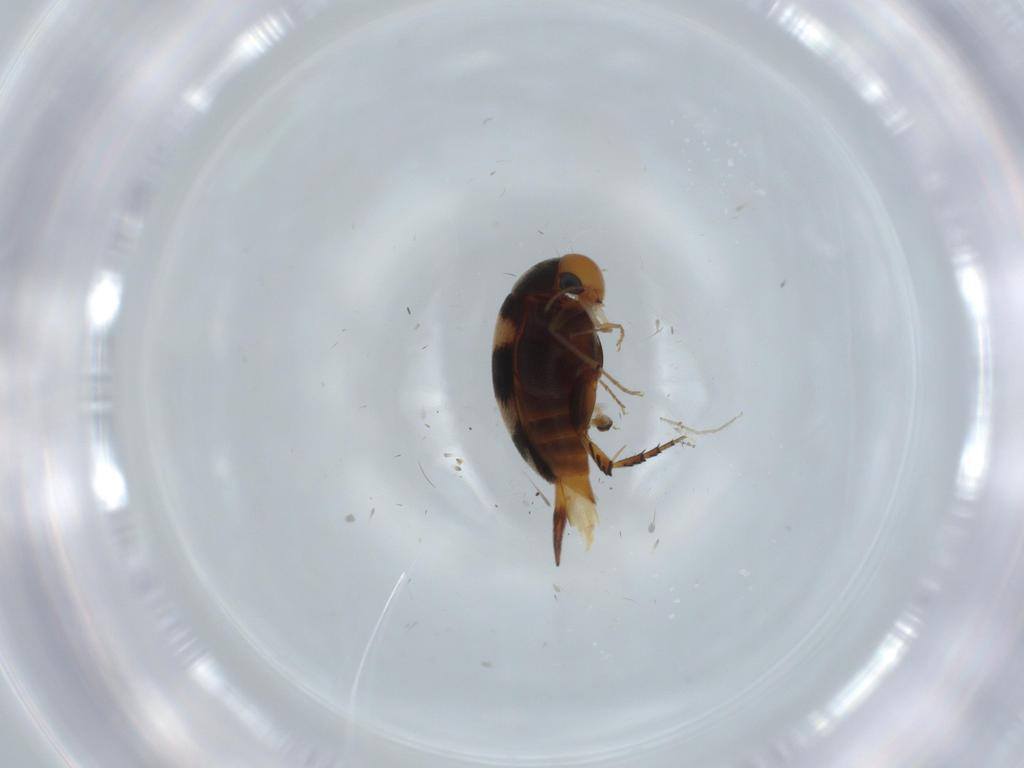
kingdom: Animalia
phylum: Arthropoda
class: Insecta
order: Coleoptera
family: Mordellidae
